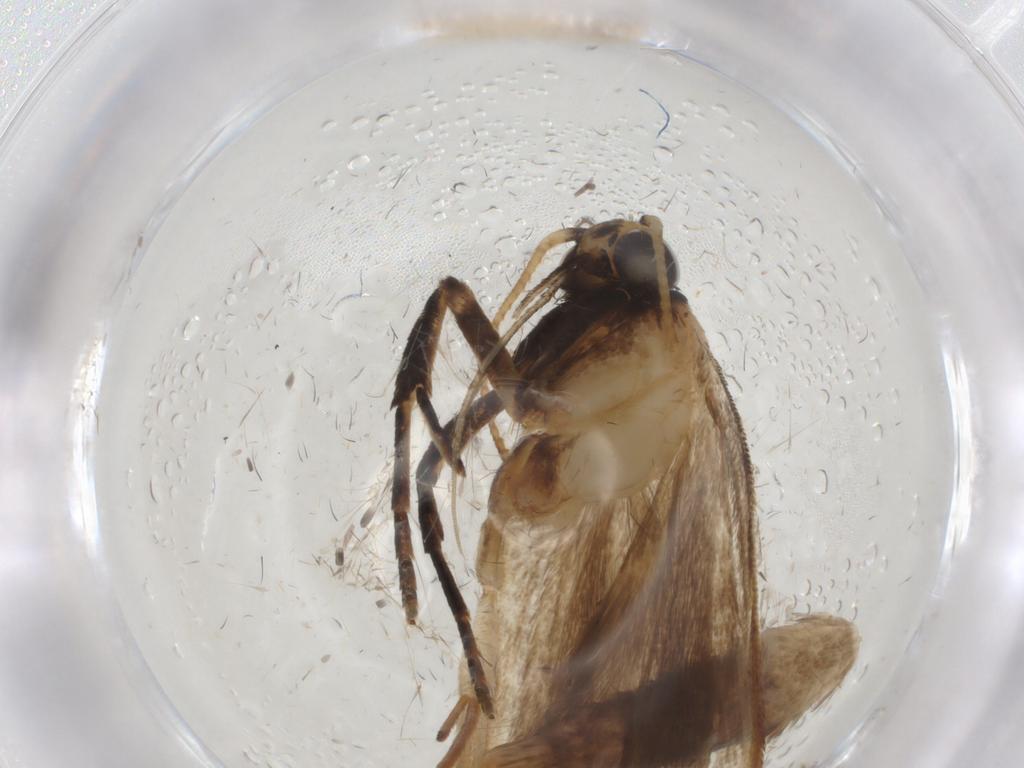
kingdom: Animalia
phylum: Arthropoda
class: Insecta
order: Lepidoptera
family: Gelechiidae
